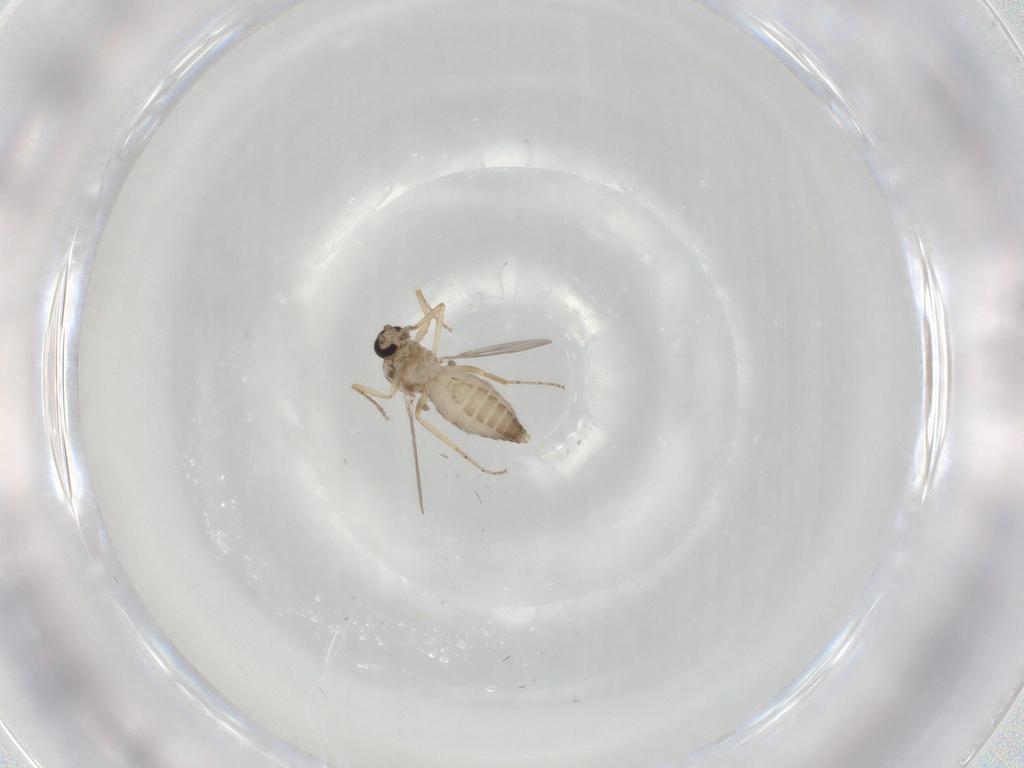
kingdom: Animalia
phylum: Arthropoda
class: Insecta
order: Diptera
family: Ceratopogonidae
